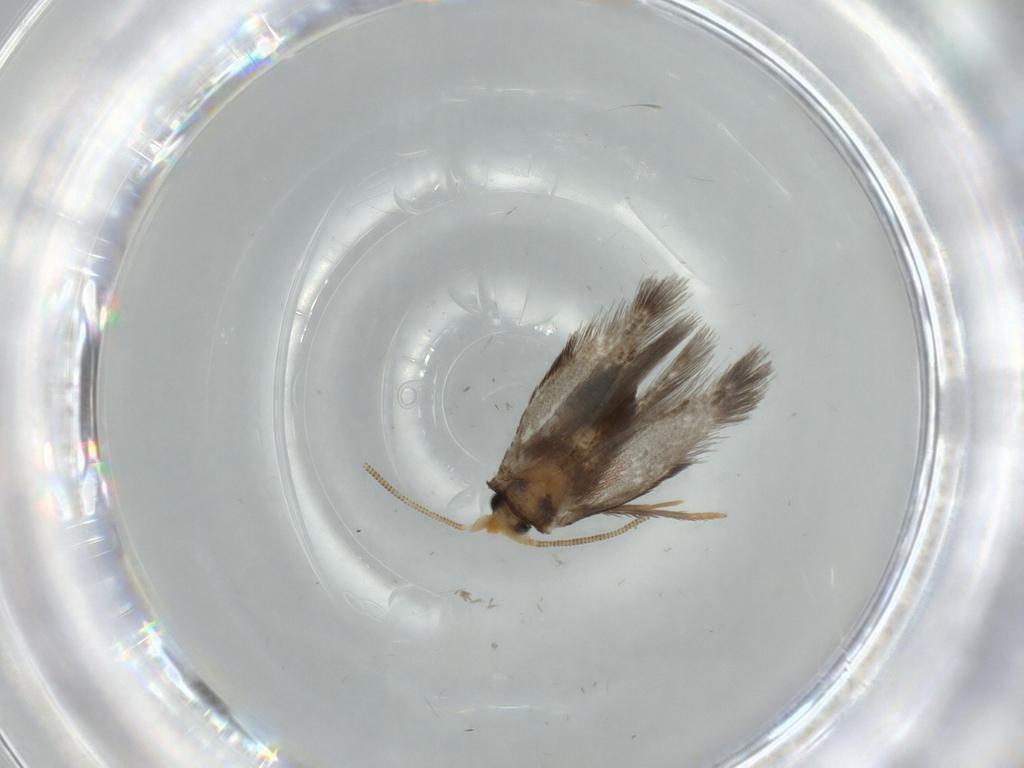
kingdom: Animalia
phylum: Arthropoda
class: Insecta
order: Lepidoptera
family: Nepticulidae
